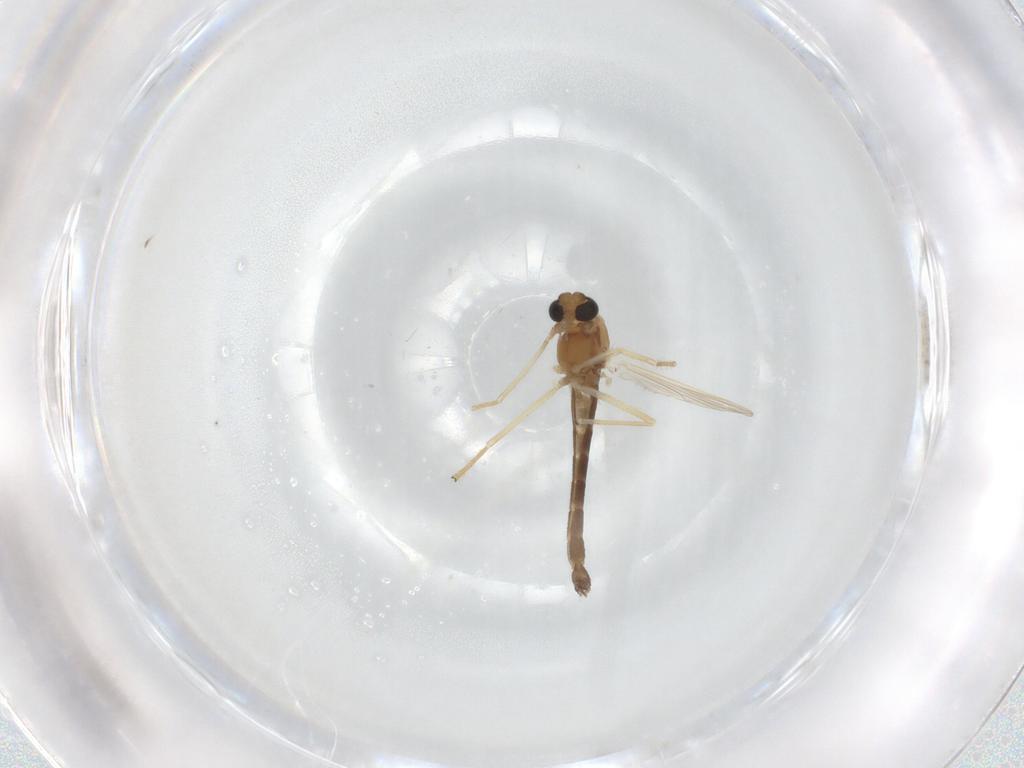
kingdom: Animalia
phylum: Arthropoda
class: Insecta
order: Diptera
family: Chironomidae
